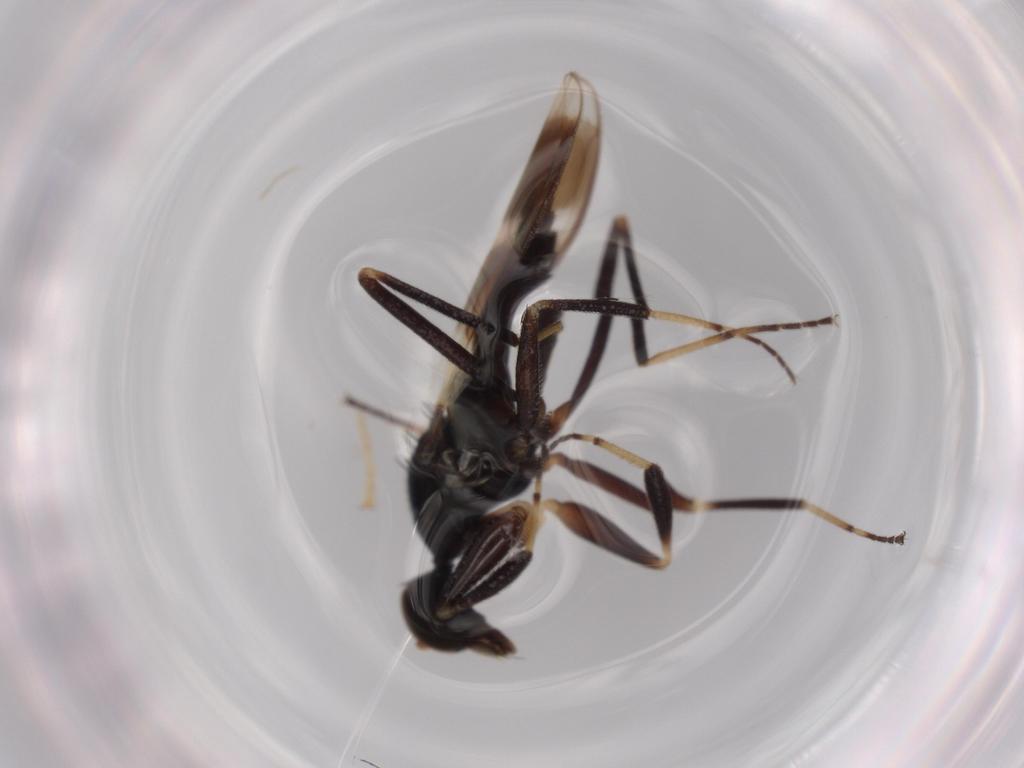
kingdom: Animalia
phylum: Arthropoda
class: Insecta
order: Diptera
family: Hybotidae
